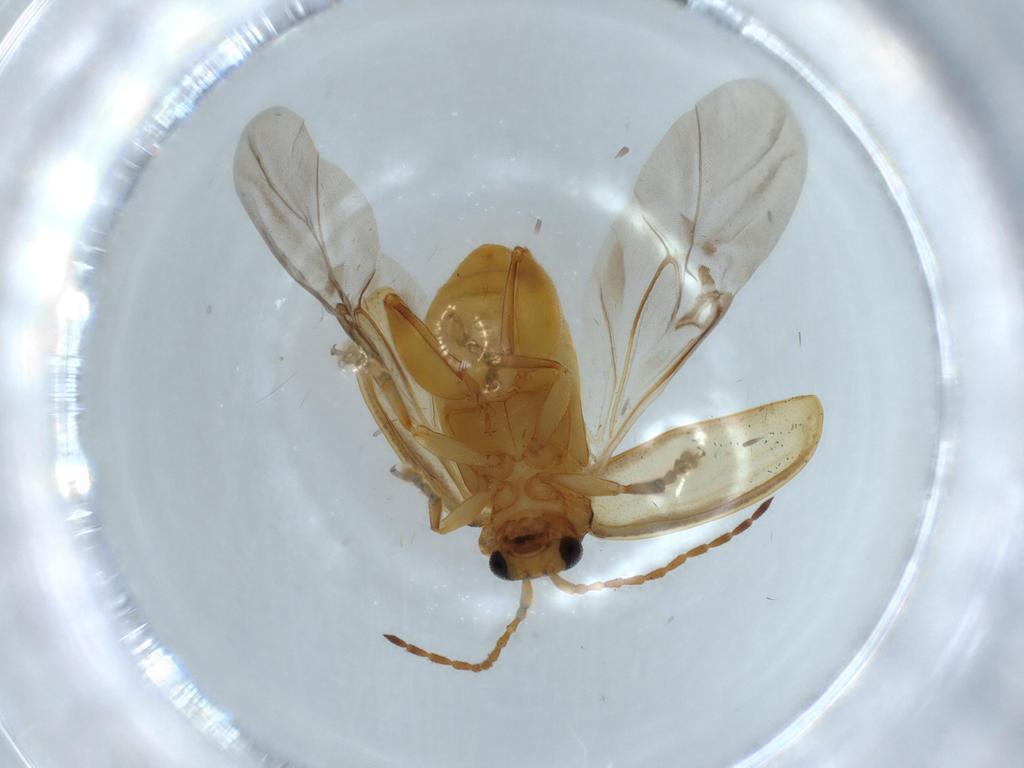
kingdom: Animalia
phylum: Arthropoda
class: Insecta
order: Coleoptera
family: Chrysomelidae
